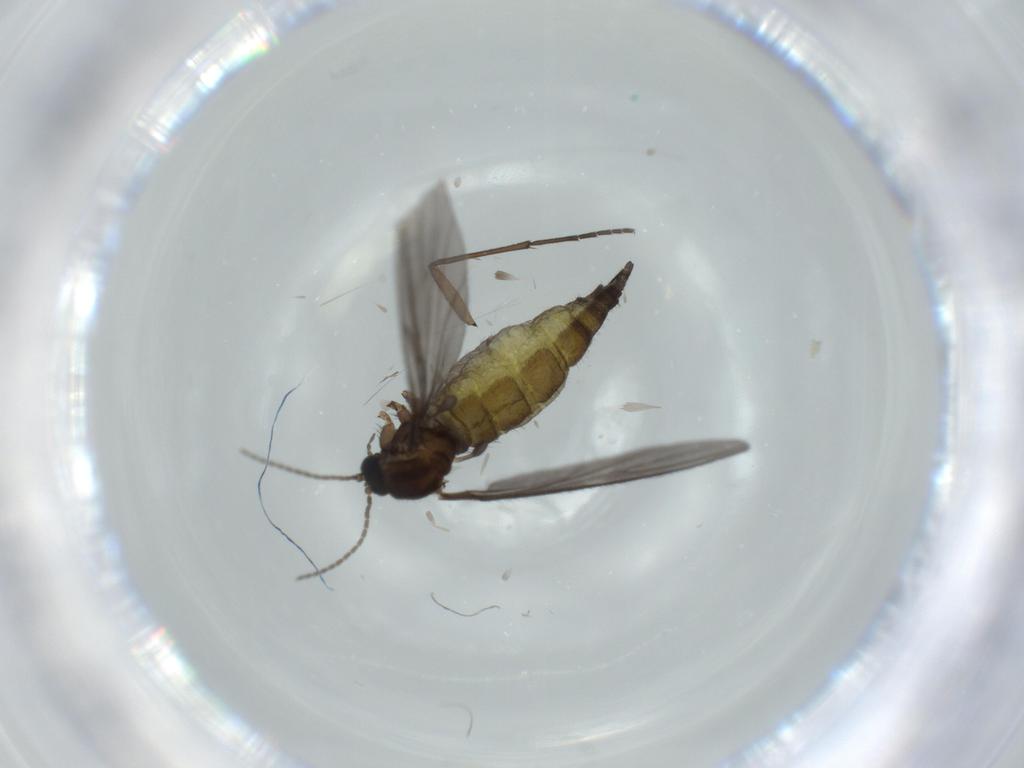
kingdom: Animalia
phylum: Arthropoda
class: Insecta
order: Diptera
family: Sciaridae
